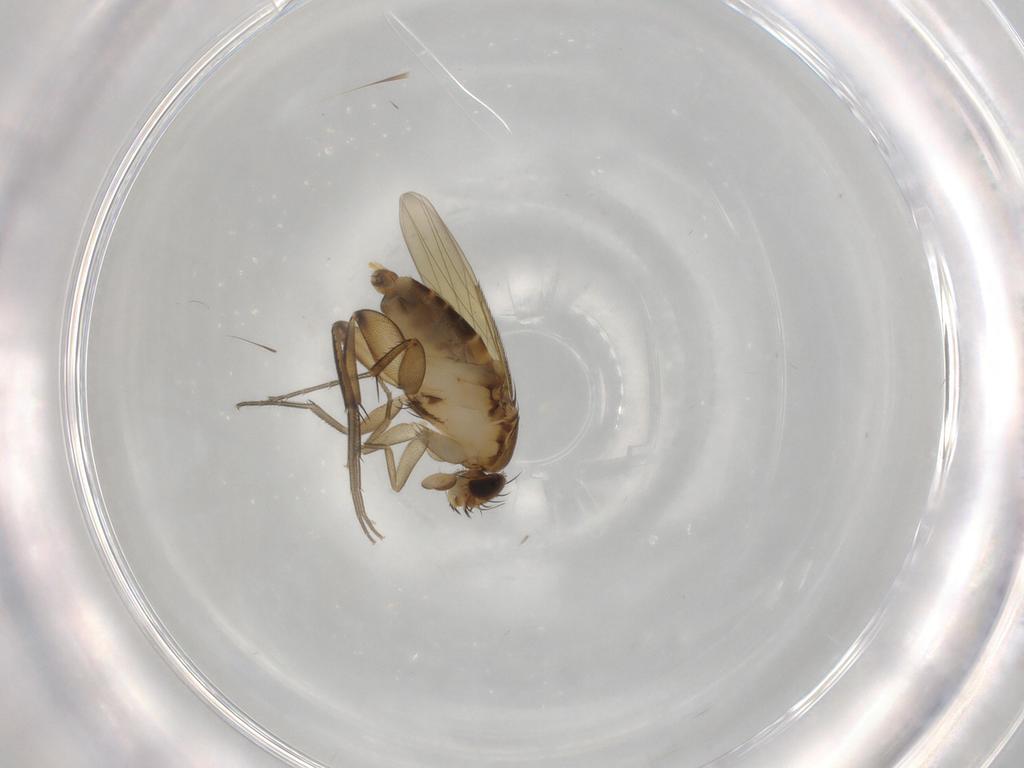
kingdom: Animalia
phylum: Arthropoda
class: Insecta
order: Diptera
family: Phoridae
